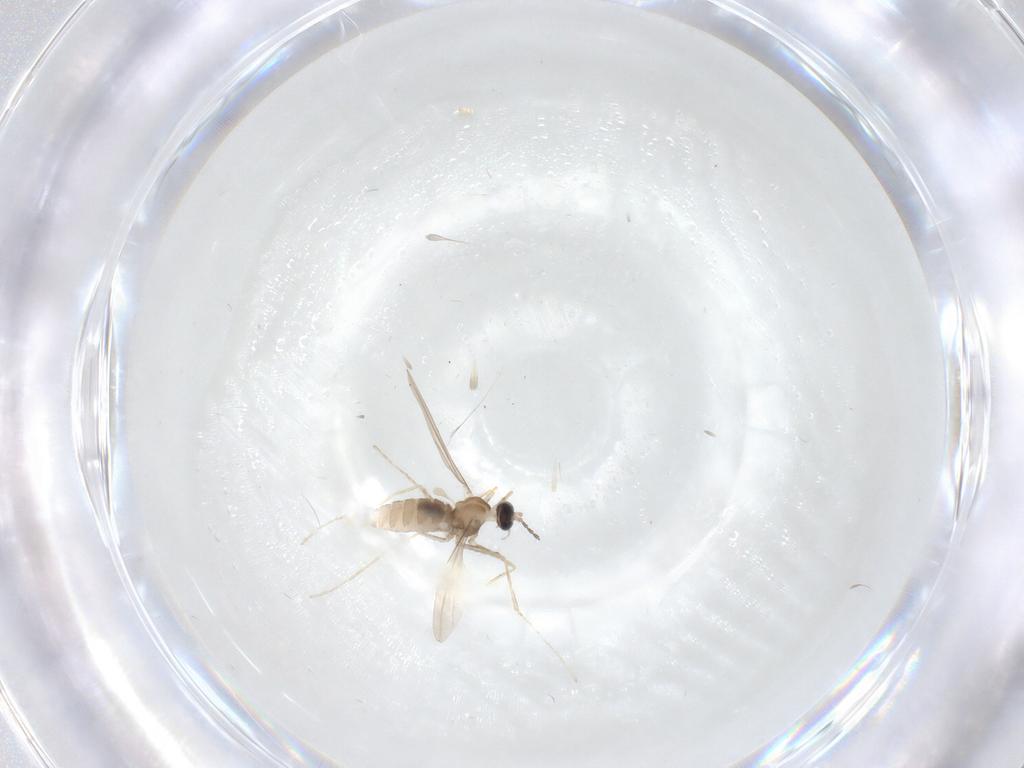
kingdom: Animalia
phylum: Arthropoda
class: Insecta
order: Diptera
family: Cecidomyiidae
